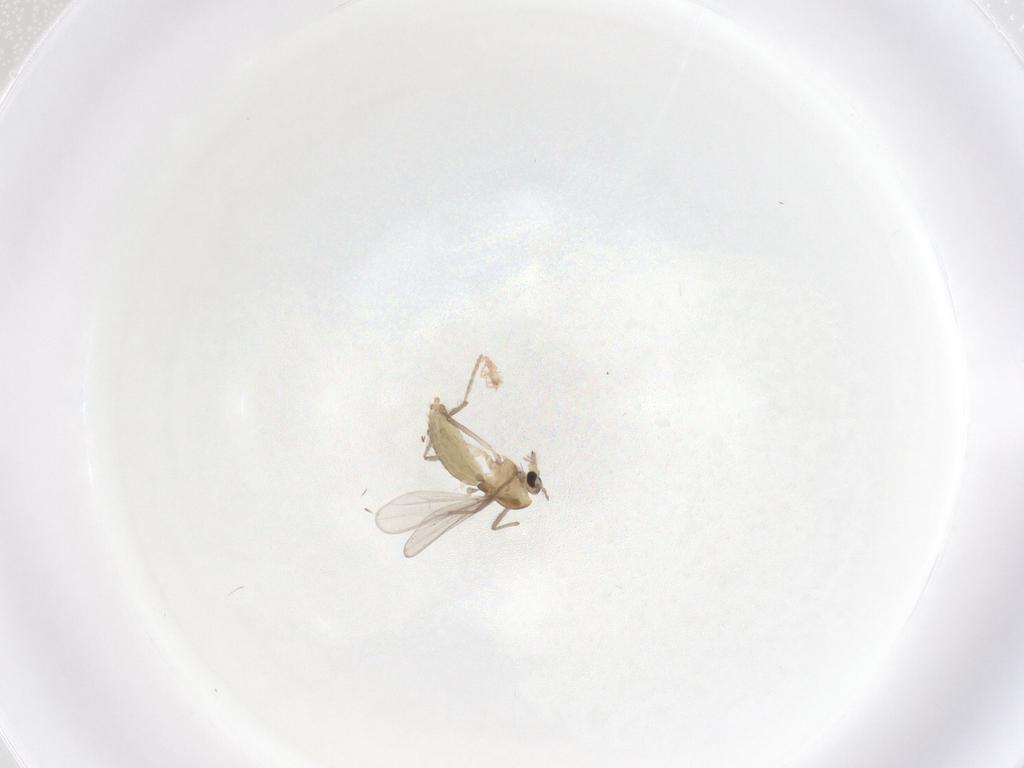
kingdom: Animalia
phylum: Arthropoda
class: Insecta
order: Diptera
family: Chironomidae
